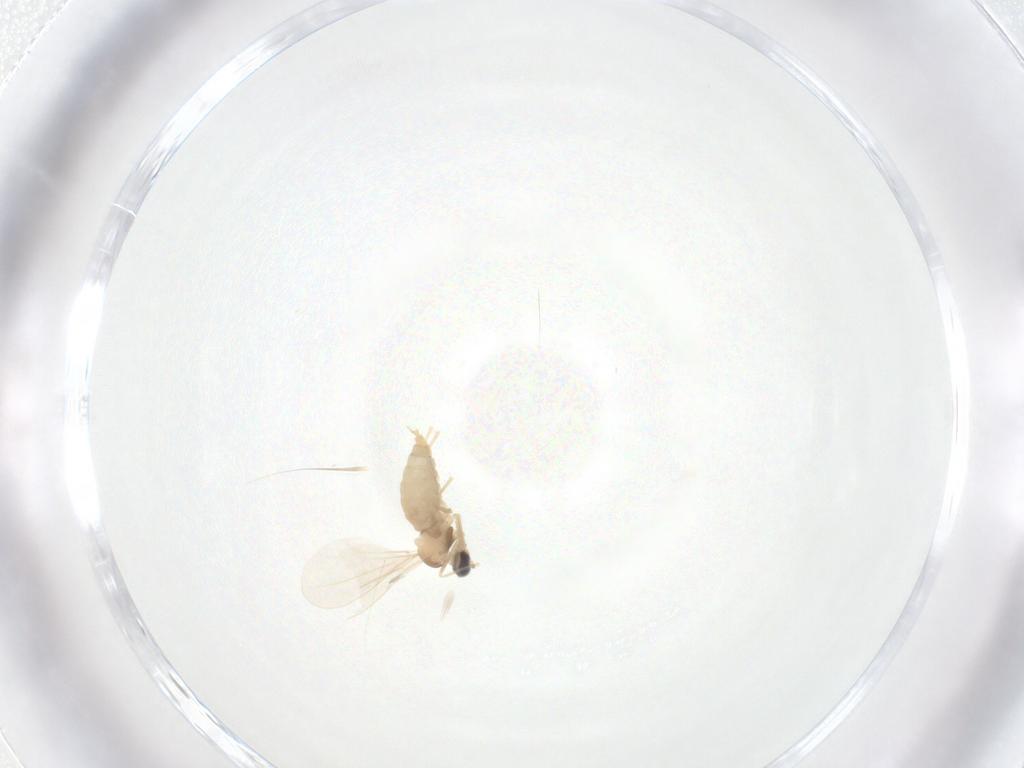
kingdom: Animalia
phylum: Arthropoda
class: Insecta
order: Diptera
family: Cecidomyiidae
